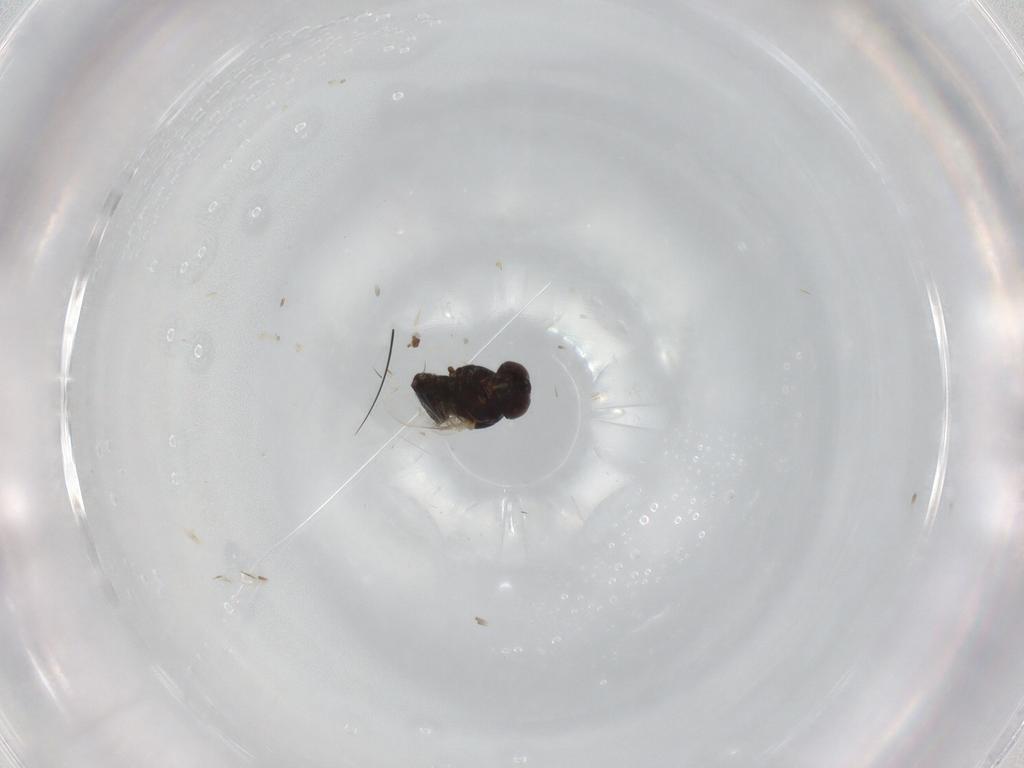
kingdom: Animalia
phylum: Arthropoda
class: Insecta
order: Diptera
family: Agromyzidae
